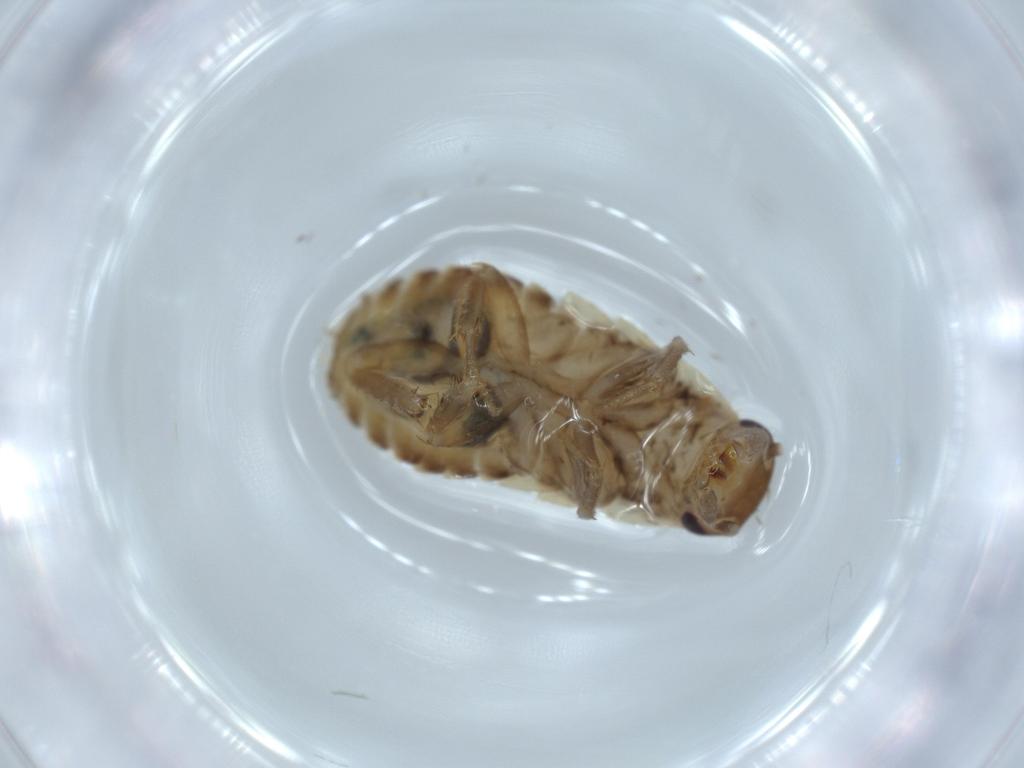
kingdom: Animalia
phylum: Arthropoda
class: Insecta
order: Blattodea
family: Ectobiidae
